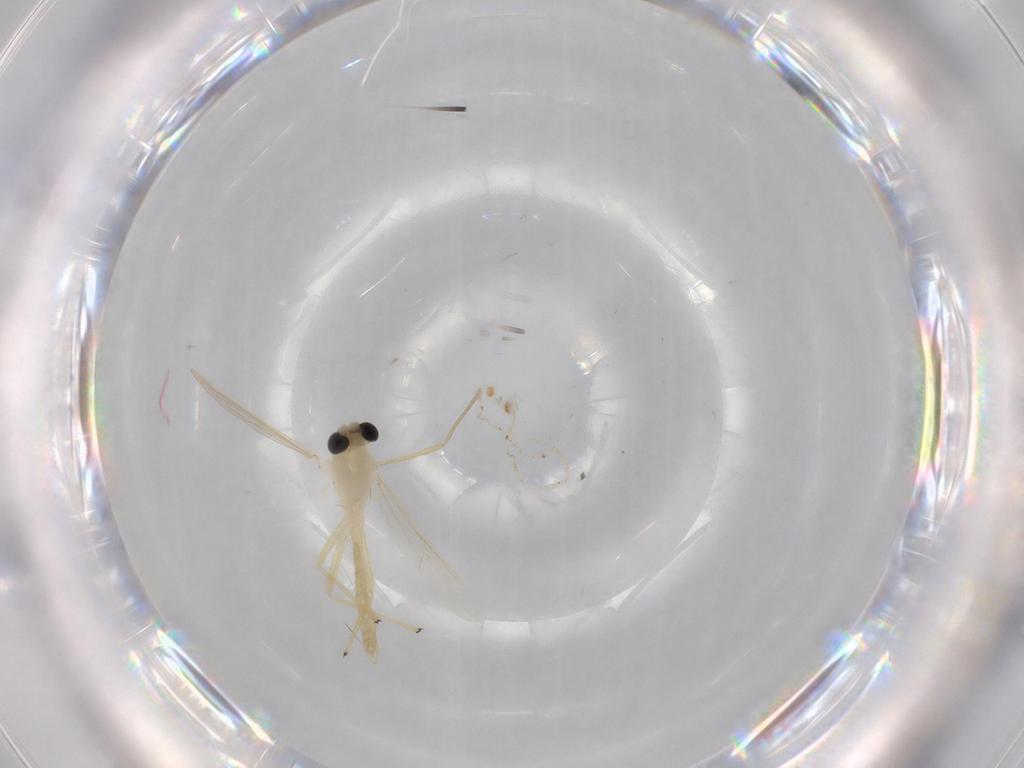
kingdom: Animalia
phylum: Arthropoda
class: Insecta
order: Diptera
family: Chironomidae
